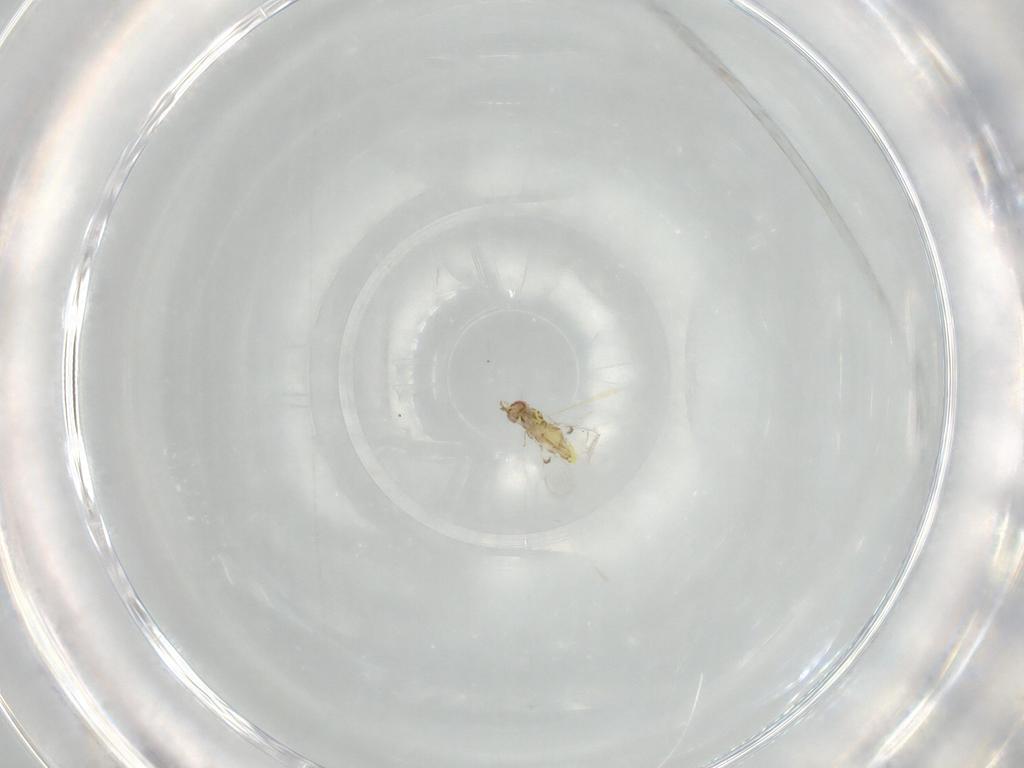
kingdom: Animalia
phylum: Arthropoda
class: Insecta
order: Hymenoptera
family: Trichogrammatidae
